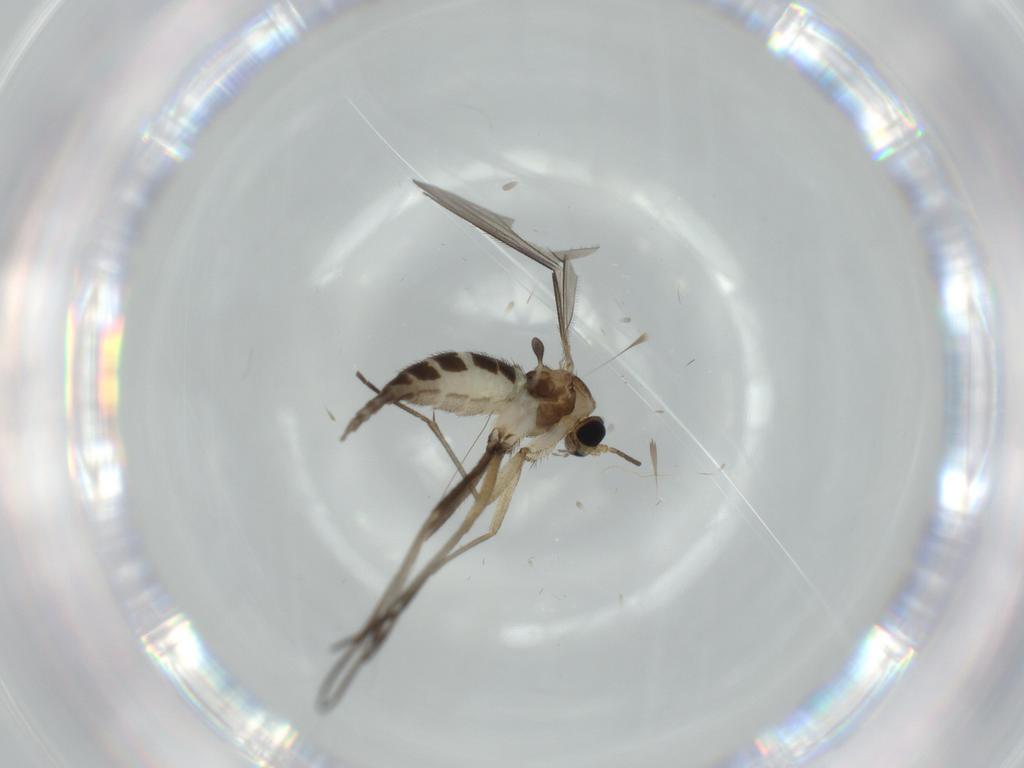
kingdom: Animalia
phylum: Arthropoda
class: Insecta
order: Diptera
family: Sciaridae
